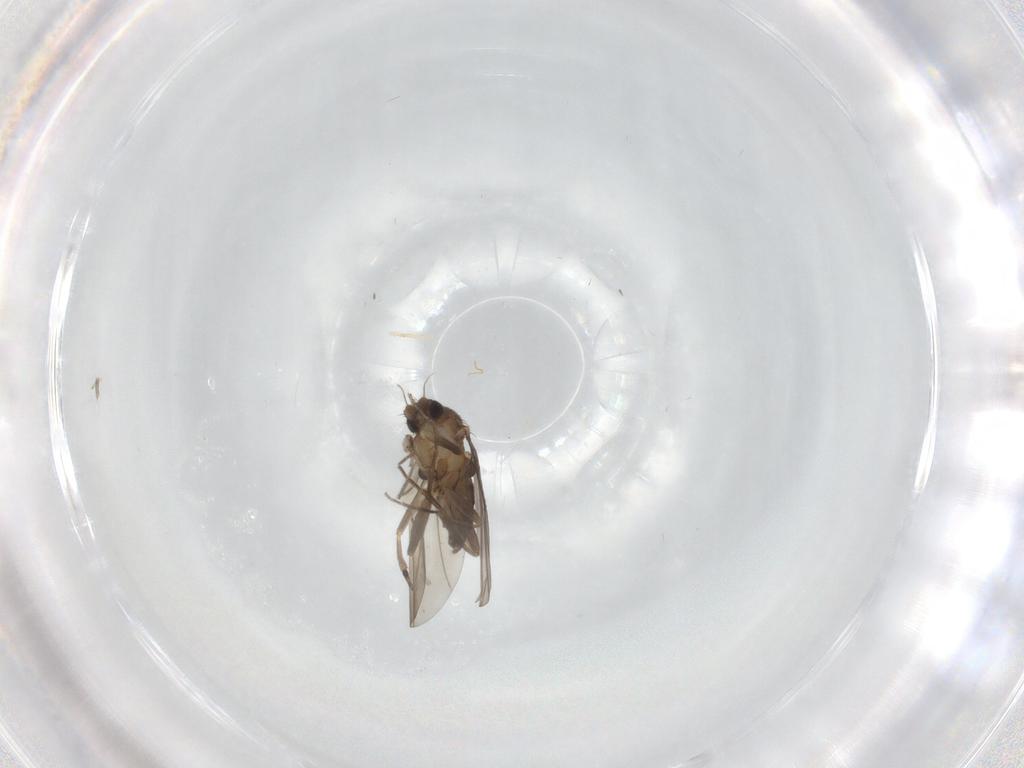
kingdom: Animalia
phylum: Arthropoda
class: Insecta
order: Diptera
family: Phoridae
